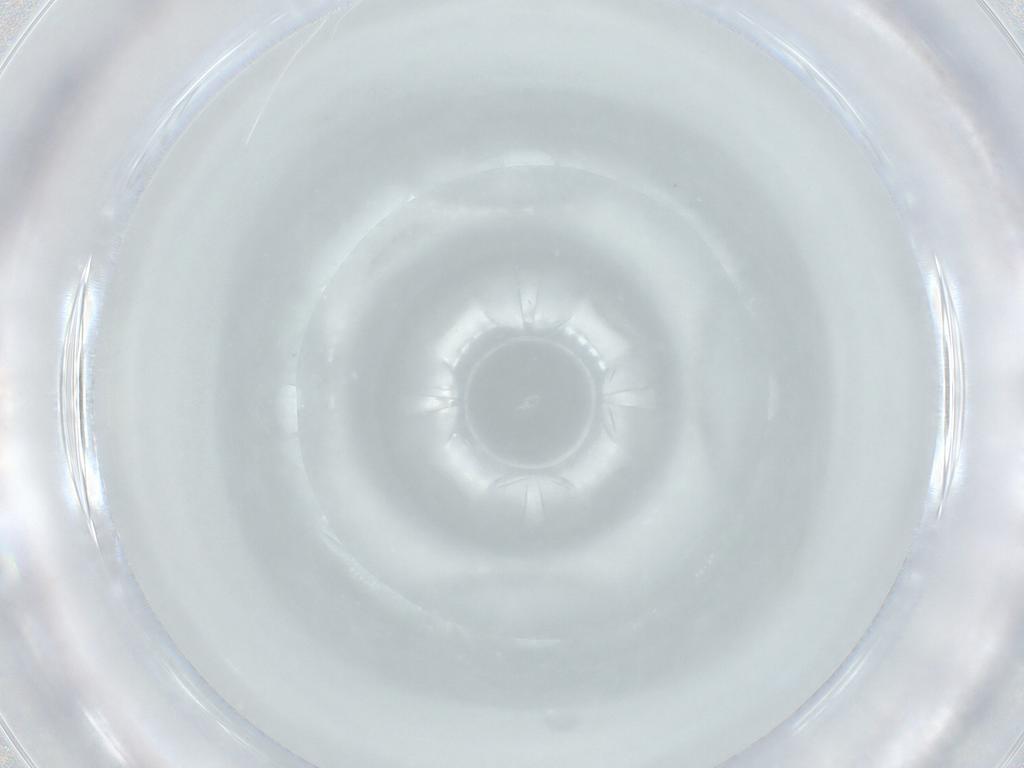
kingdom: Animalia
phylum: Arthropoda
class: Insecta
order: Diptera
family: Phoridae
